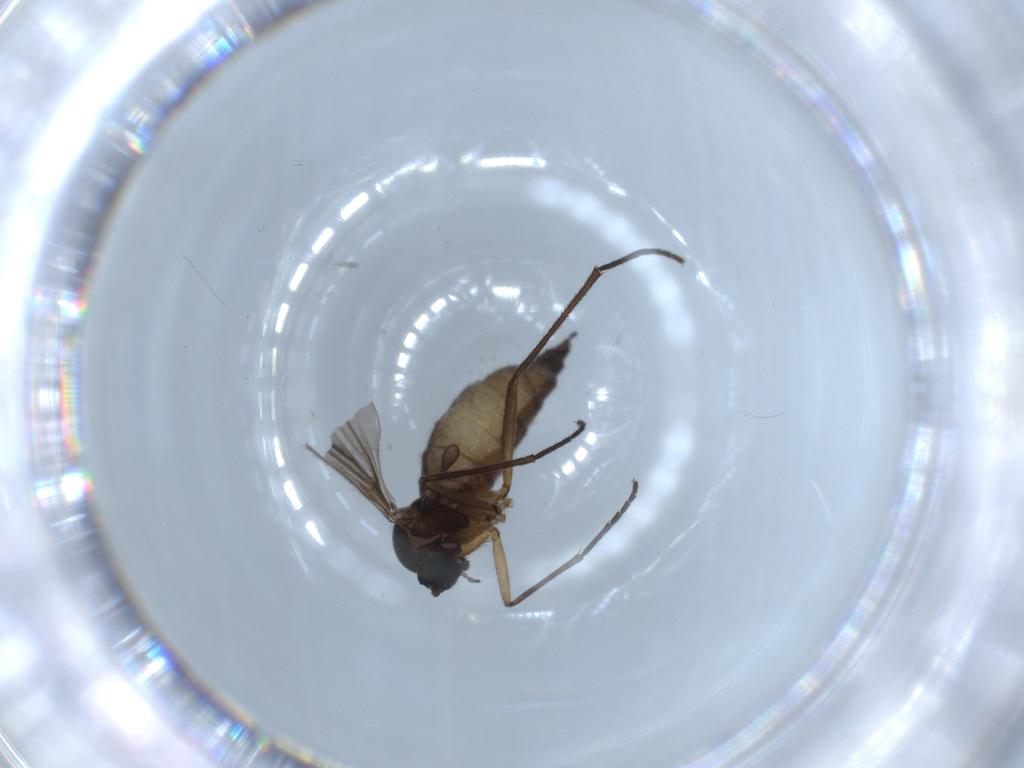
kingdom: Animalia
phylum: Arthropoda
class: Insecta
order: Diptera
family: Sciaridae
